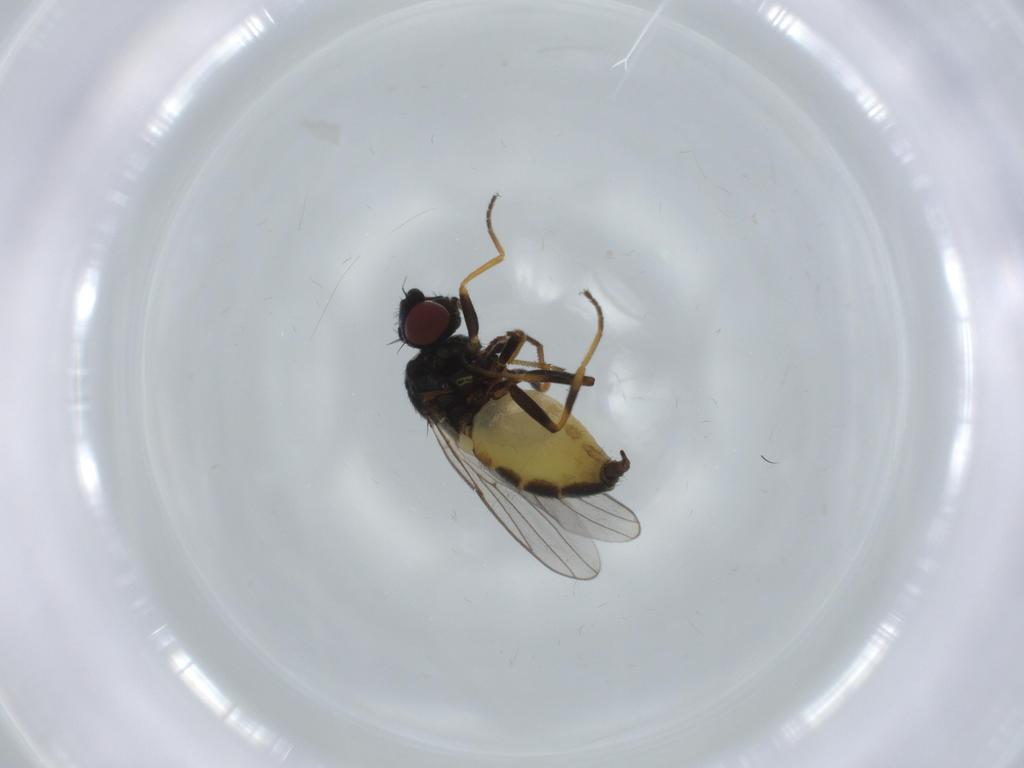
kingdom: Animalia
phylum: Arthropoda
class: Insecta
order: Diptera
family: Chloropidae
